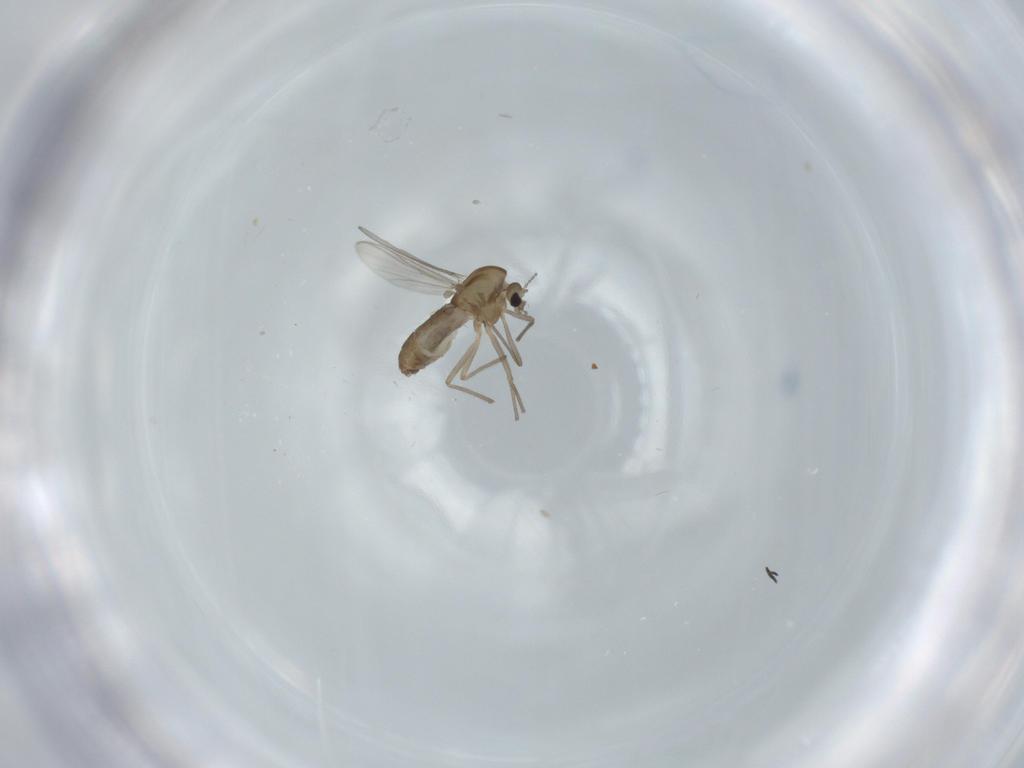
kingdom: Animalia
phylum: Arthropoda
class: Insecta
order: Diptera
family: Chironomidae
